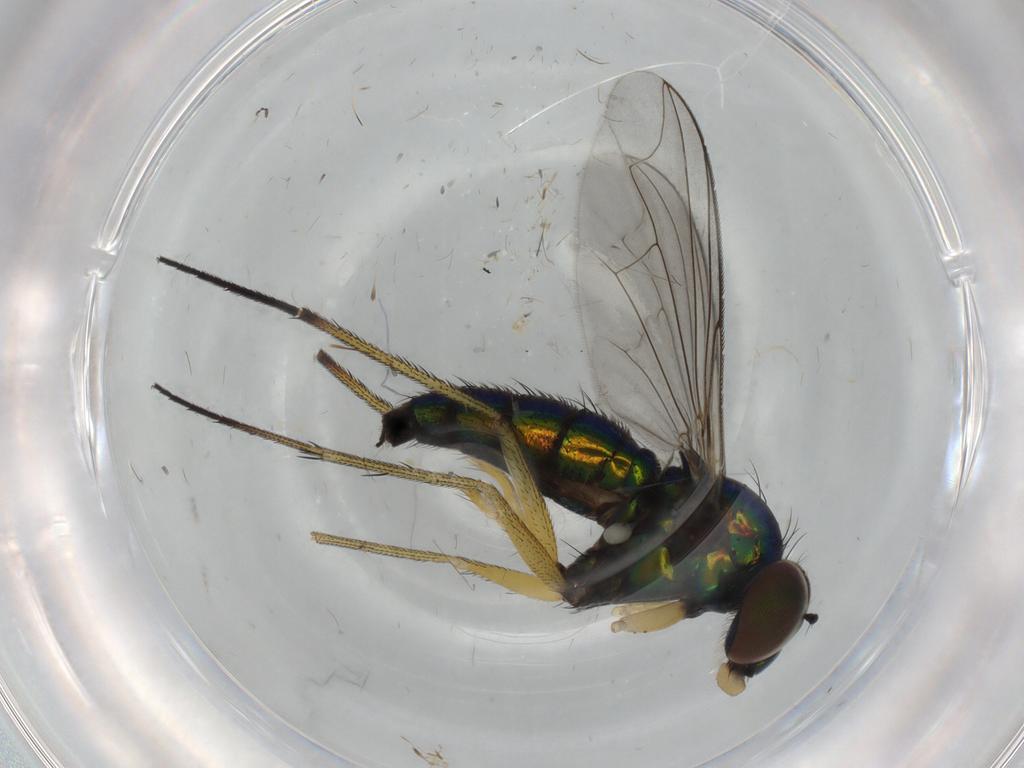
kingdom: Animalia
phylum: Arthropoda
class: Insecta
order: Diptera
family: Dolichopodidae
